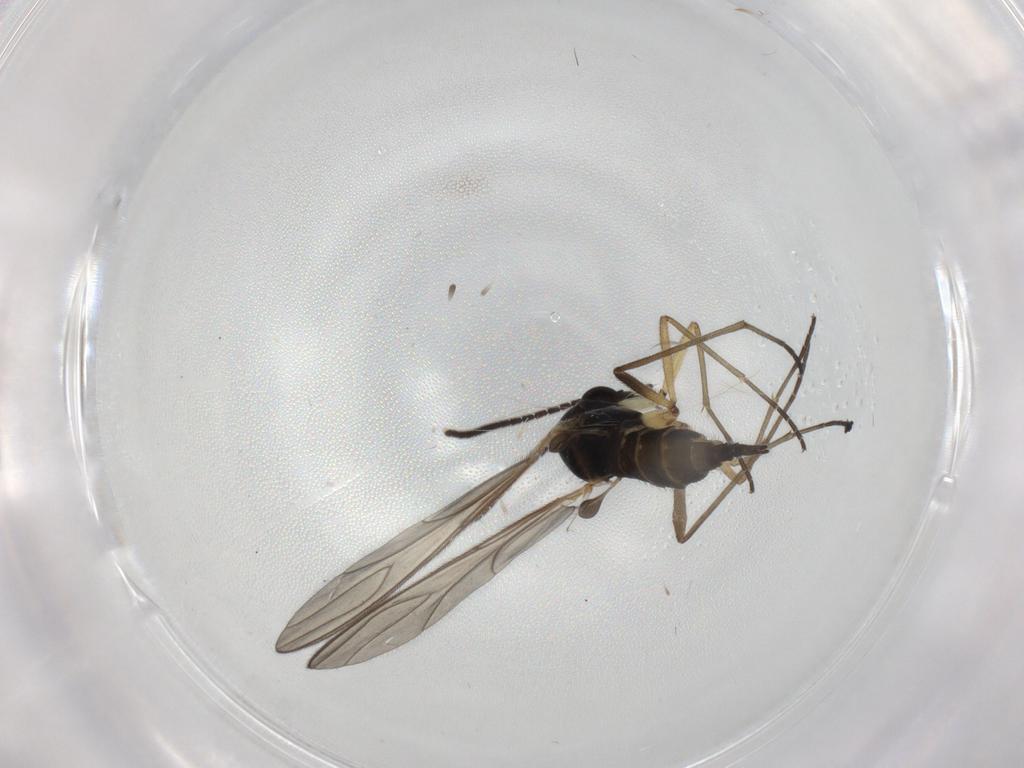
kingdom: Animalia
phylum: Arthropoda
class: Insecta
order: Diptera
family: Sciaridae
